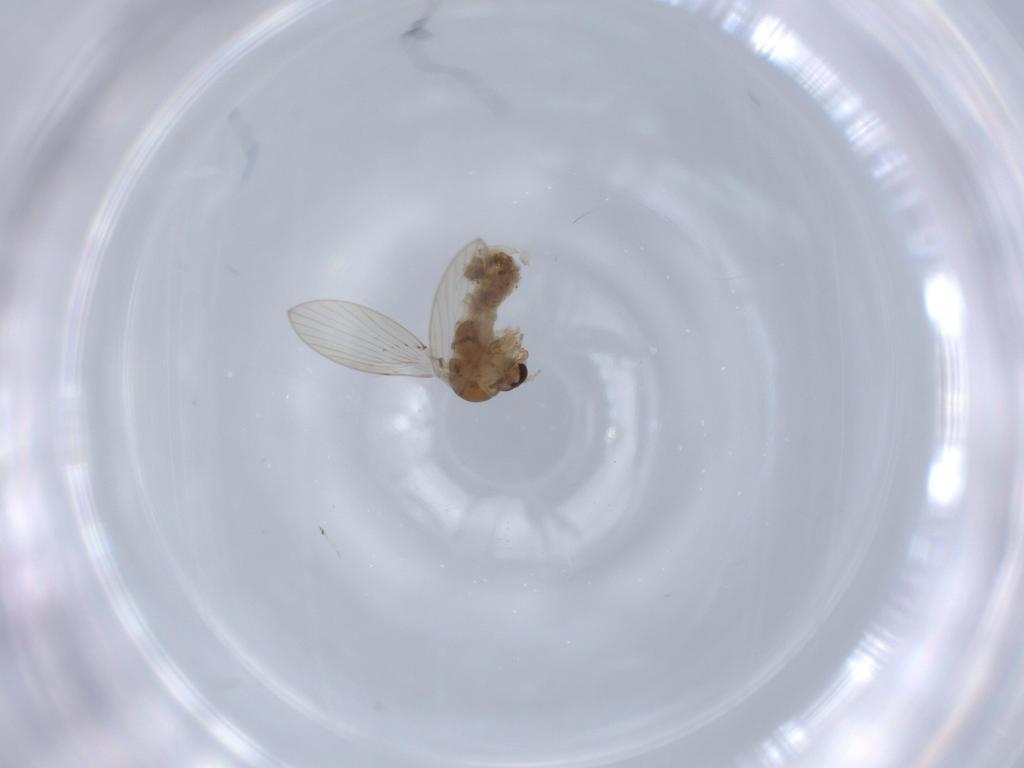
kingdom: Animalia
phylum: Arthropoda
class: Insecta
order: Diptera
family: Psychodidae
